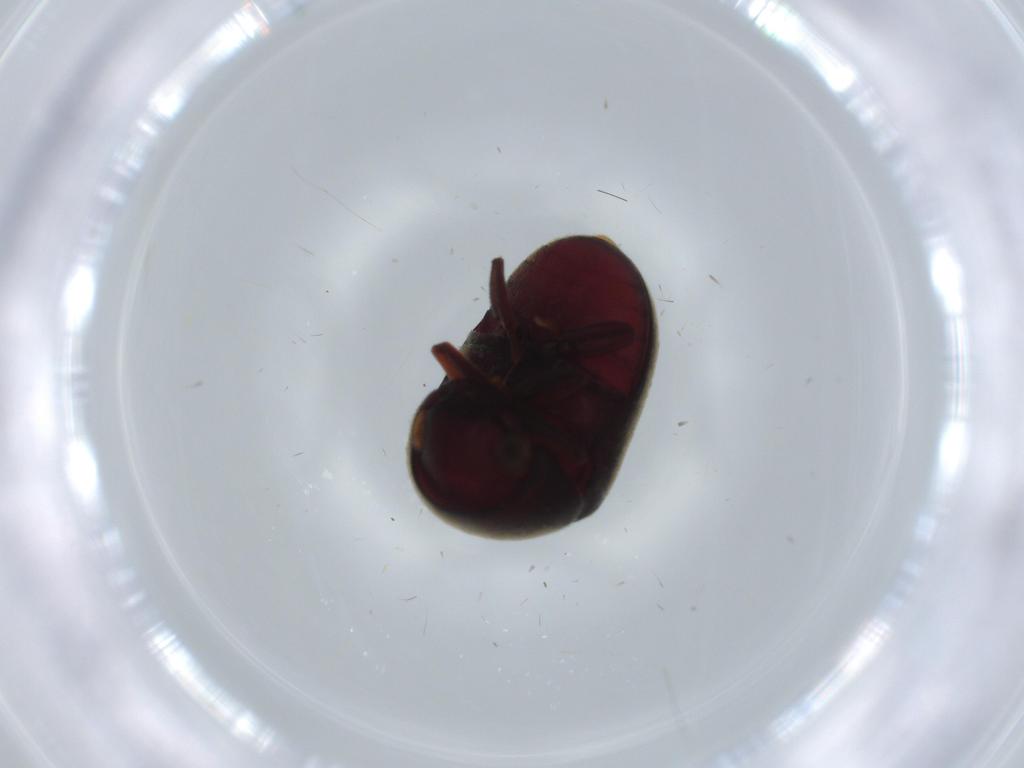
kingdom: Animalia
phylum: Arthropoda
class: Insecta
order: Coleoptera
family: Ptinidae
